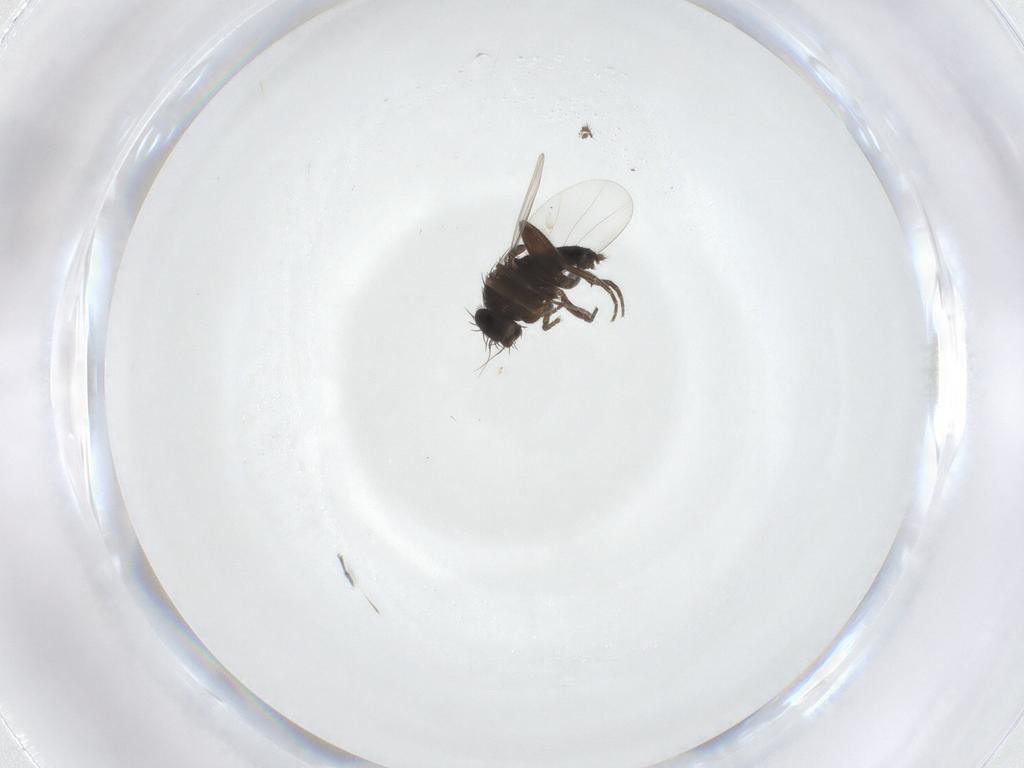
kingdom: Animalia
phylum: Arthropoda
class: Insecta
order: Diptera
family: Phoridae
